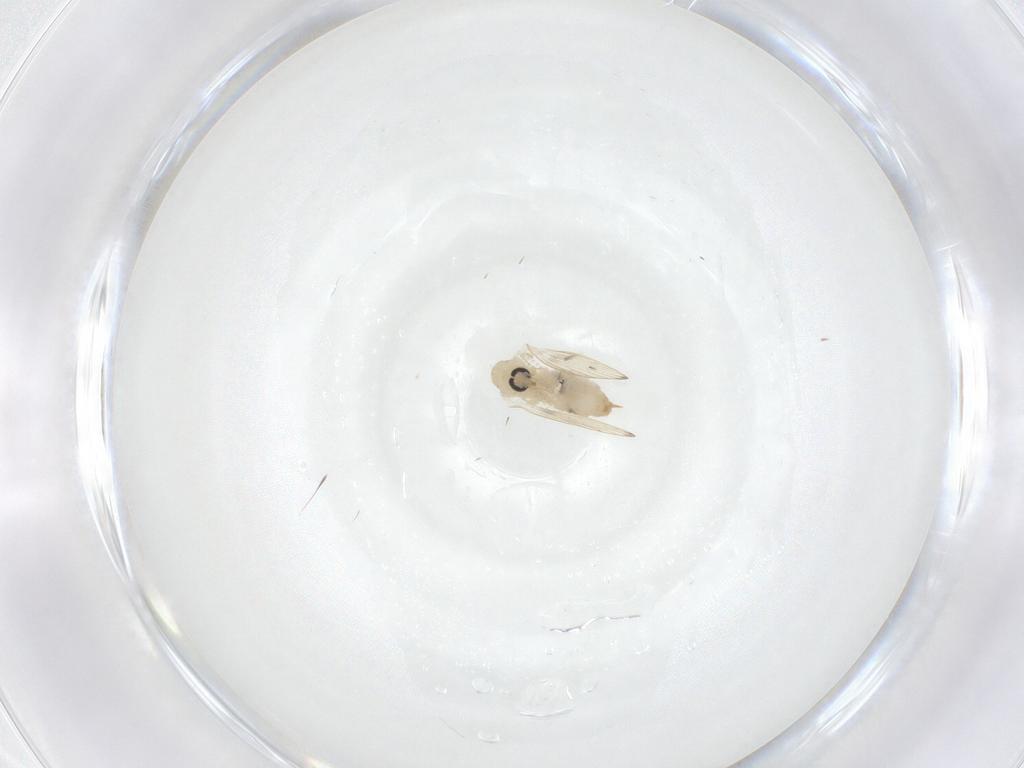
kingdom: Animalia
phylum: Arthropoda
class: Insecta
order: Diptera
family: Psychodidae
